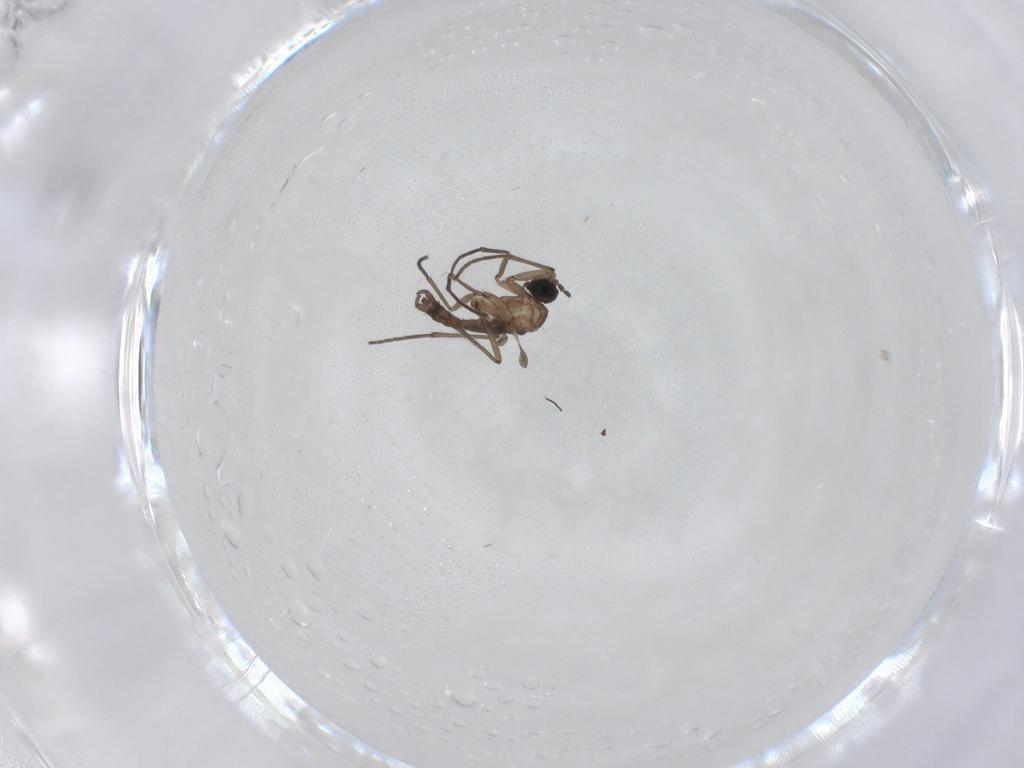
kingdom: Animalia
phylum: Arthropoda
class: Insecta
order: Diptera
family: Sciaridae
